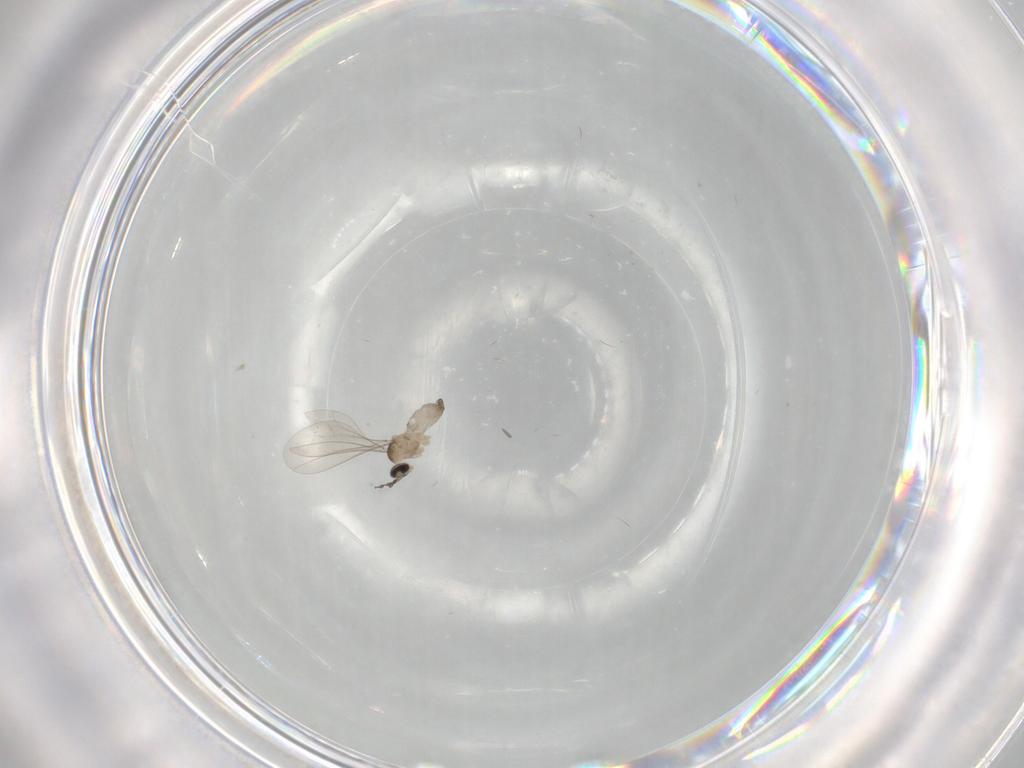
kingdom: Animalia
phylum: Arthropoda
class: Insecta
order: Diptera
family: Cecidomyiidae
